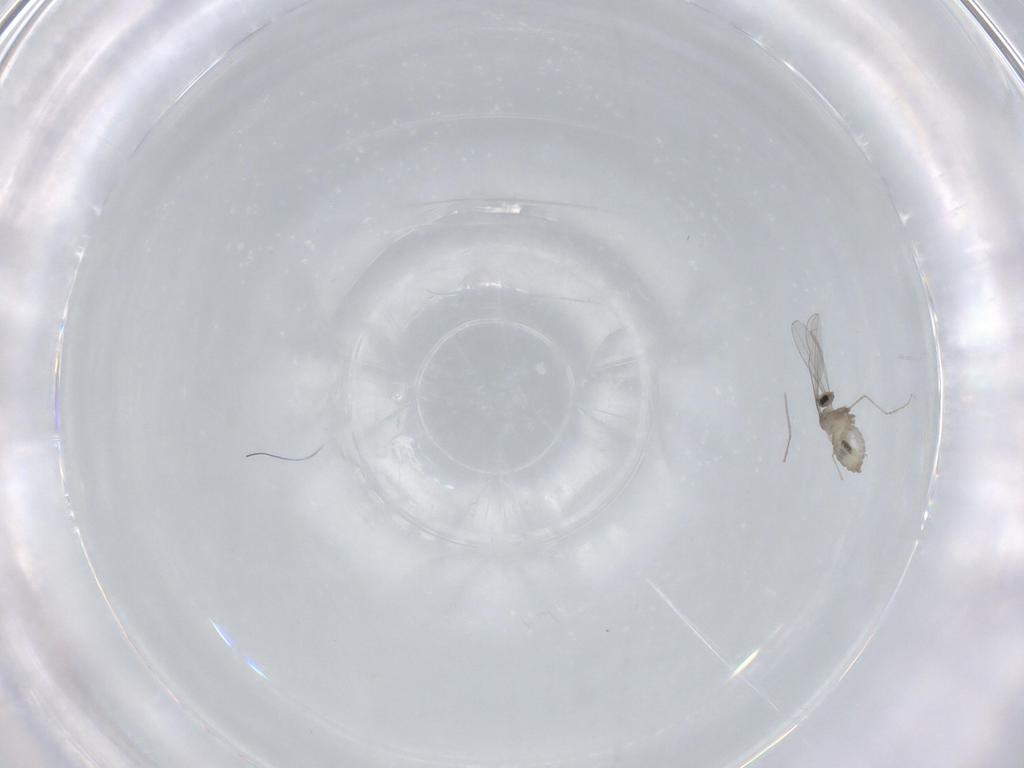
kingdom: Animalia
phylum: Arthropoda
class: Insecta
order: Diptera
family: Cecidomyiidae
